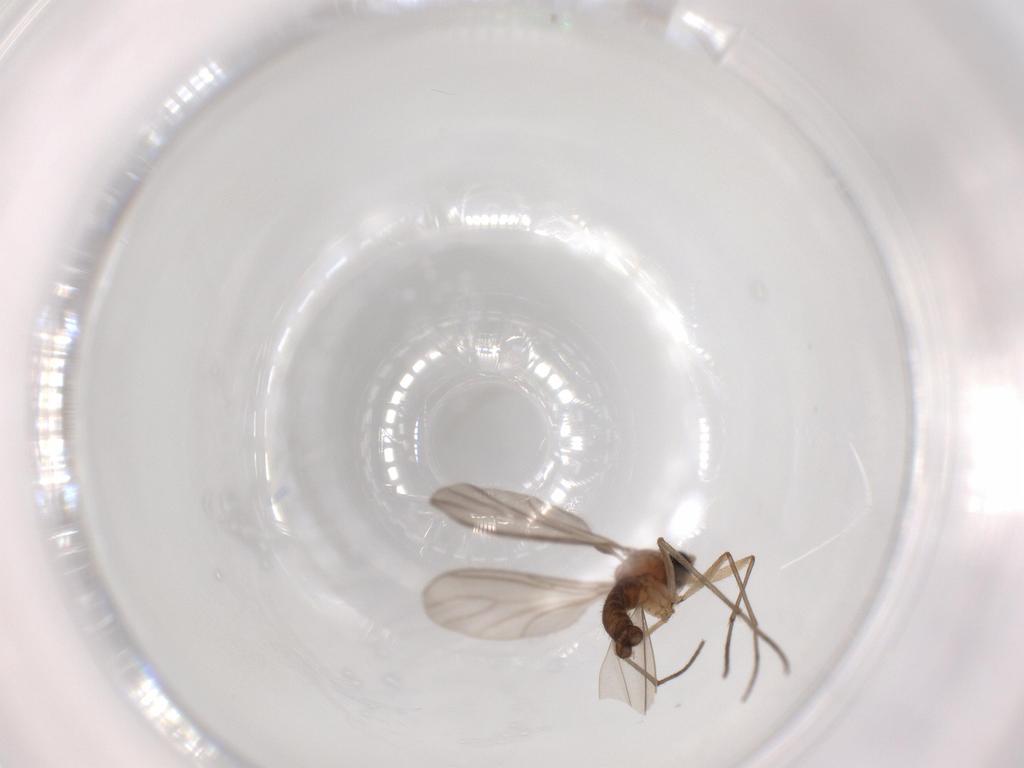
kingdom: Animalia
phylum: Arthropoda
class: Insecta
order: Diptera
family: Sciaridae
